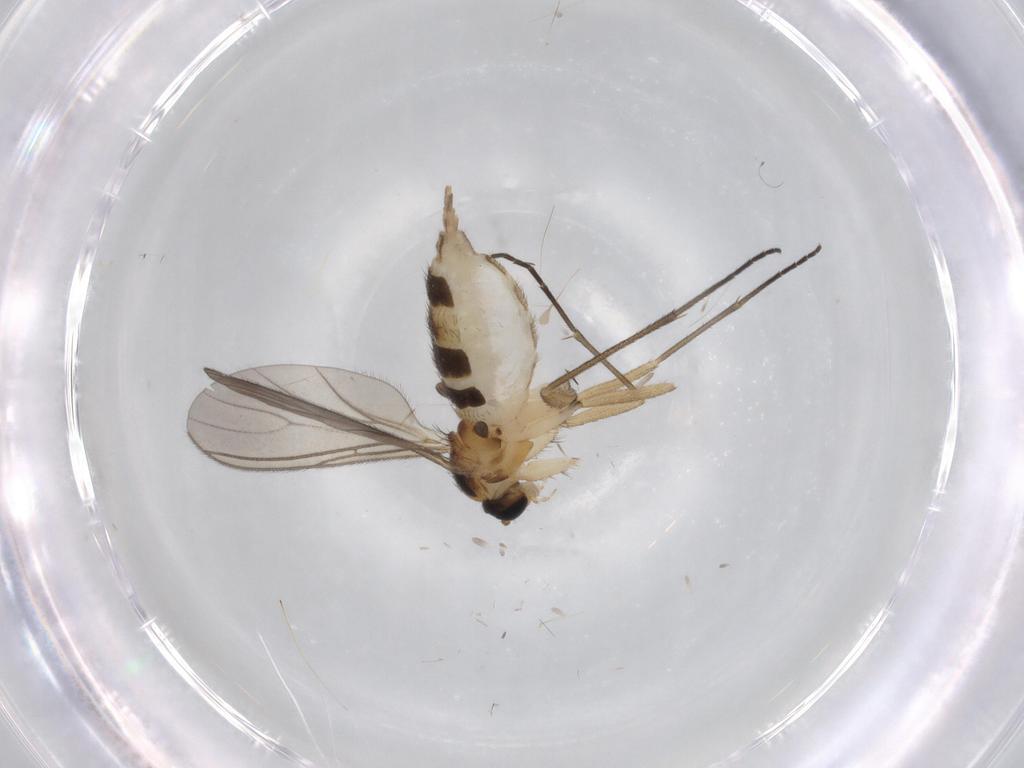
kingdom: Animalia
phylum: Arthropoda
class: Insecta
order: Diptera
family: Sciaridae
